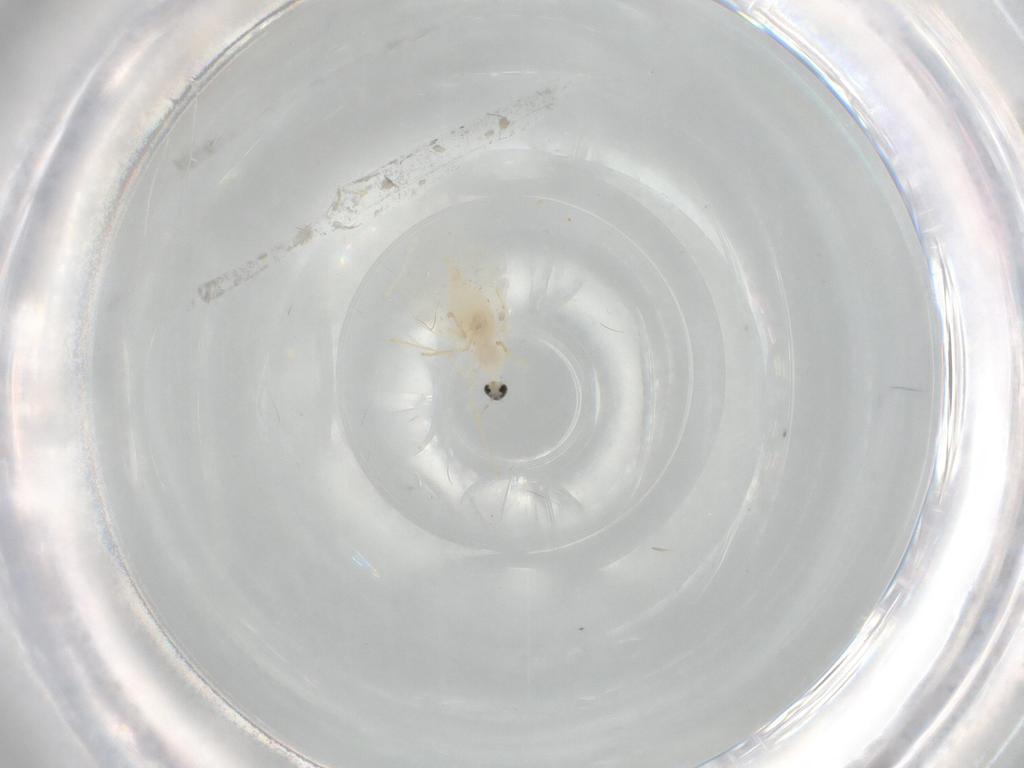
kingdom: Animalia
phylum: Arthropoda
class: Insecta
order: Diptera
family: Cecidomyiidae
